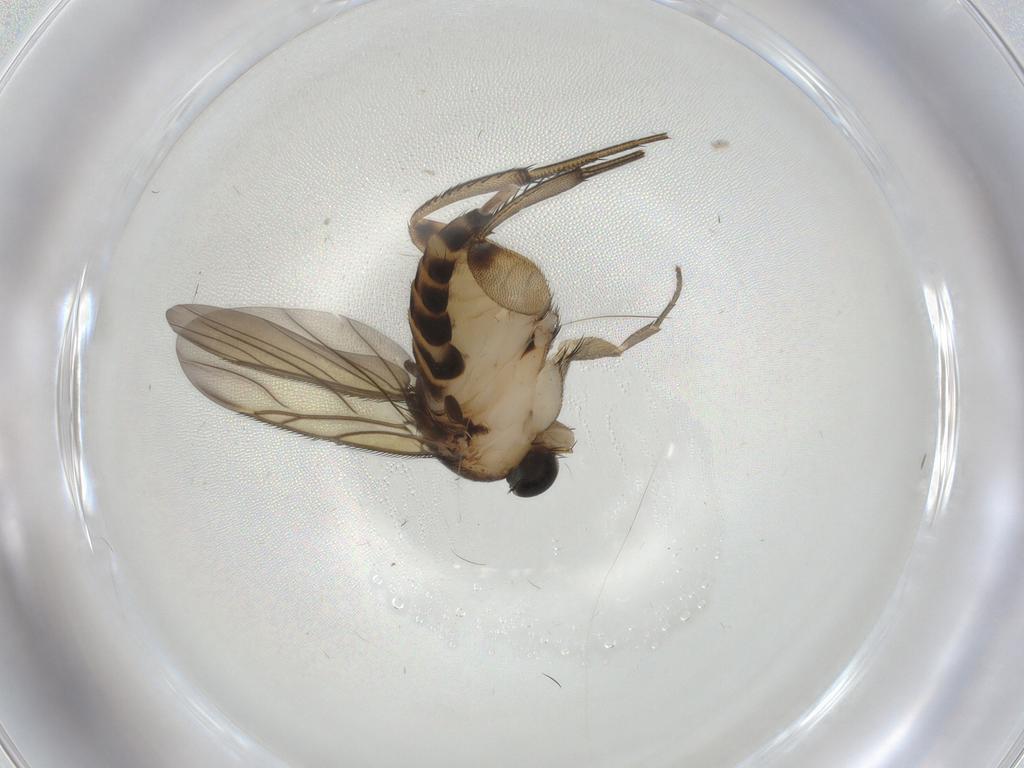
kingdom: Animalia
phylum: Arthropoda
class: Insecta
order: Diptera
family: Phoridae
